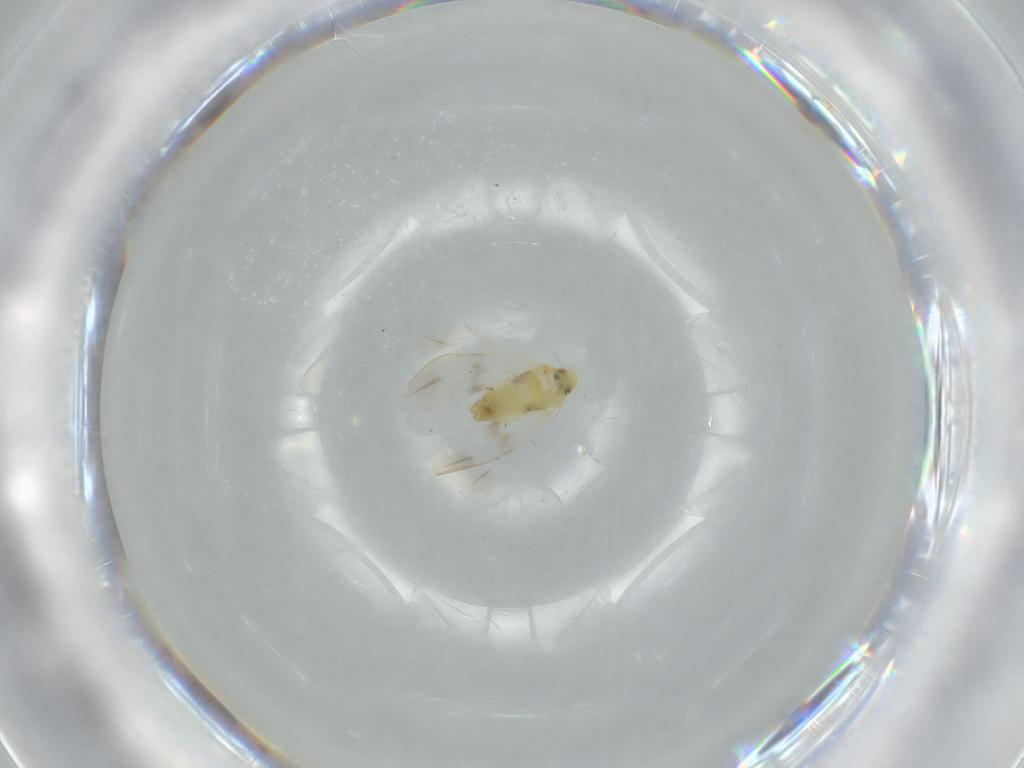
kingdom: Animalia
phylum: Arthropoda
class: Insecta
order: Hemiptera
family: Aleyrodidae
